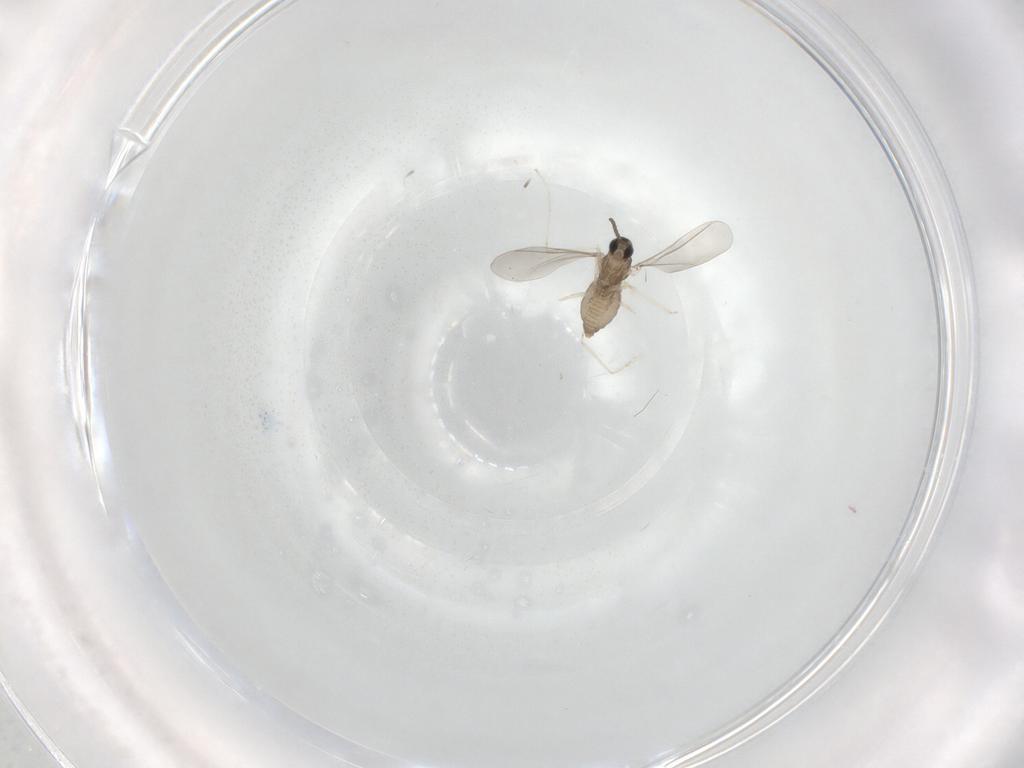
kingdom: Animalia
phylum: Arthropoda
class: Insecta
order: Diptera
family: Cecidomyiidae
